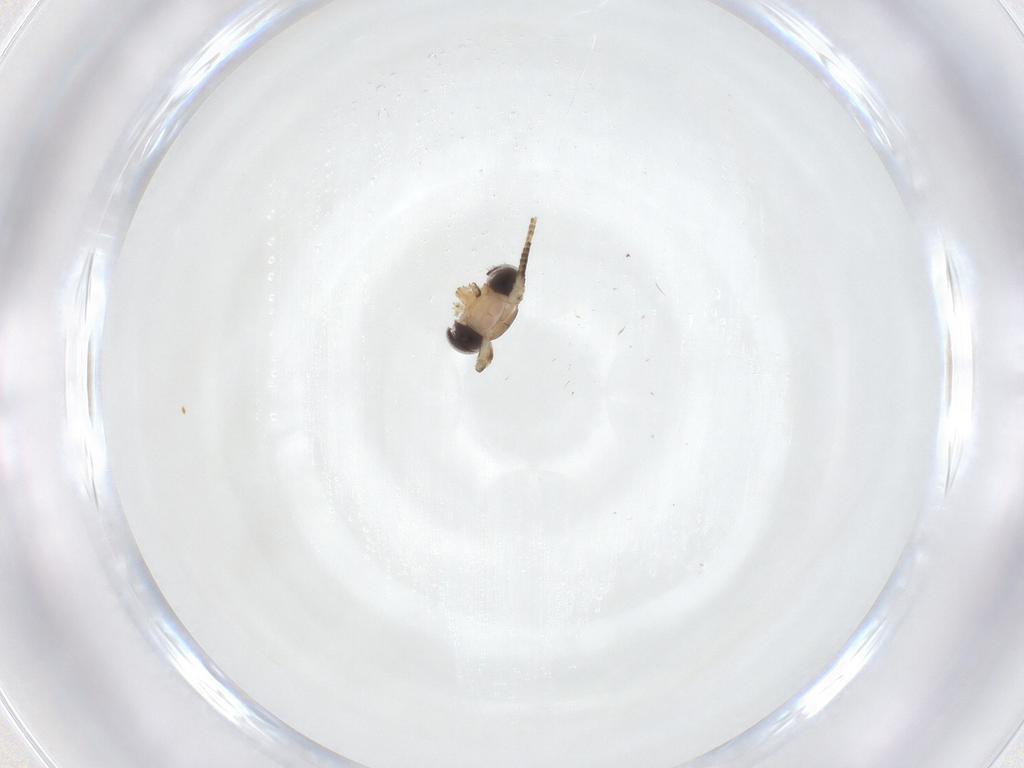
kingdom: Animalia
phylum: Arthropoda
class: Insecta
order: Lepidoptera
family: Tineidae
